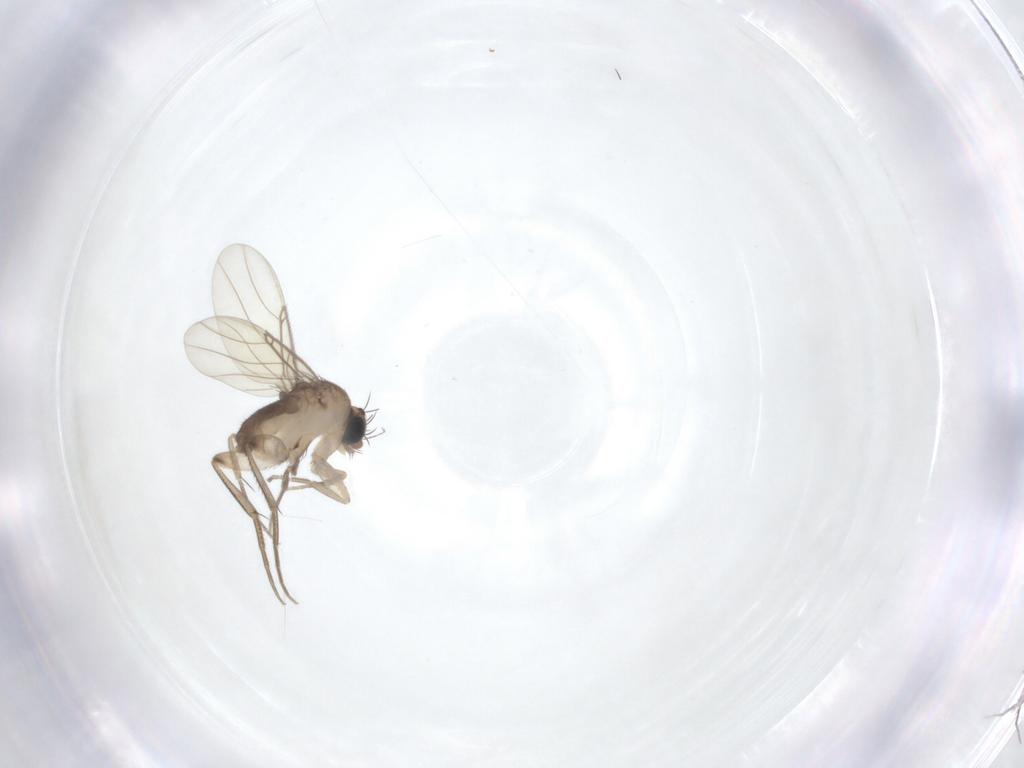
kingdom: Animalia
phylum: Arthropoda
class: Insecta
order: Diptera
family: Phoridae
